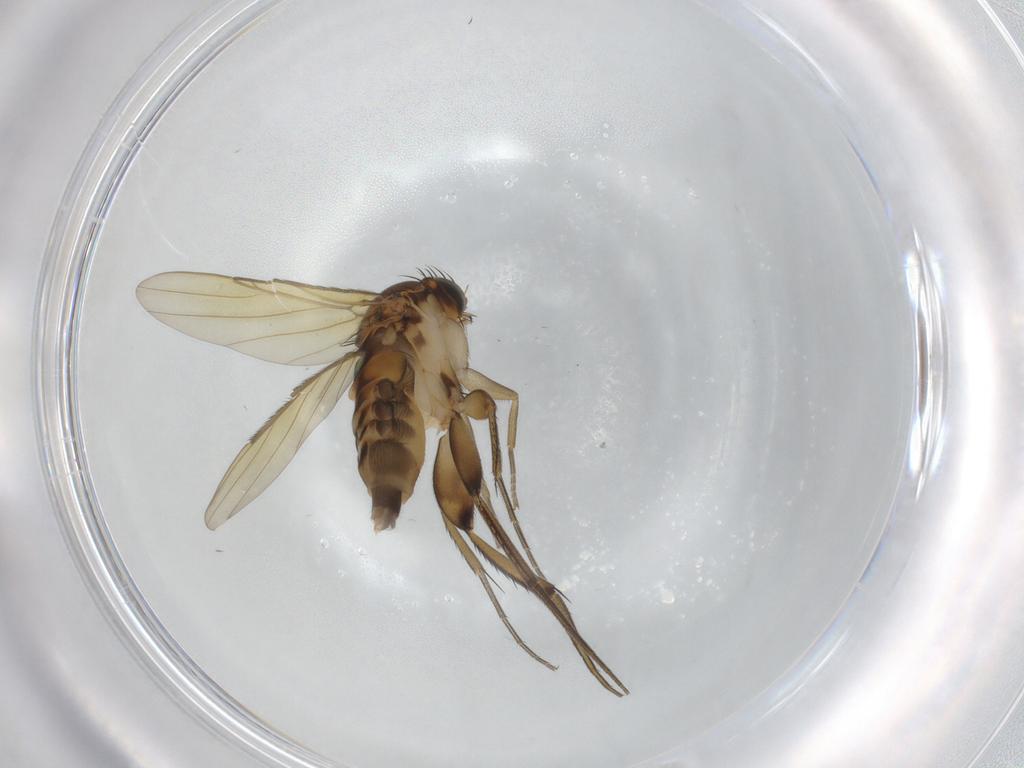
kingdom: Animalia
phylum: Arthropoda
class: Insecta
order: Diptera
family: Phoridae
